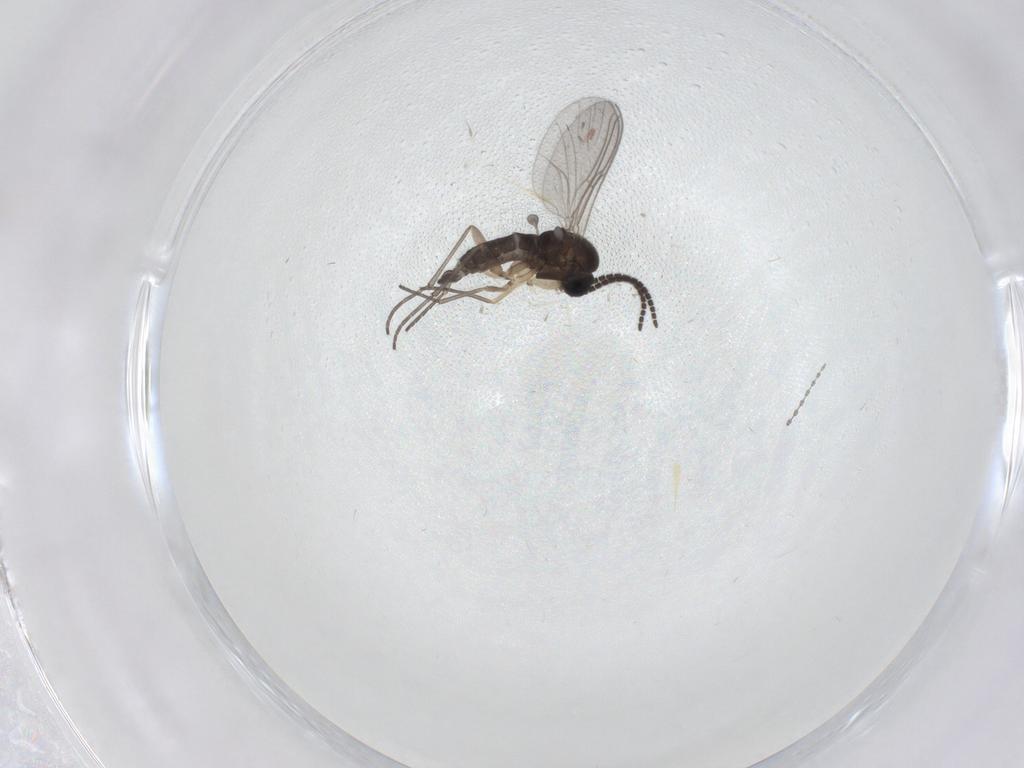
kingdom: Animalia
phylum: Arthropoda
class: Insecta
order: Diptera
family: Sciaridae
